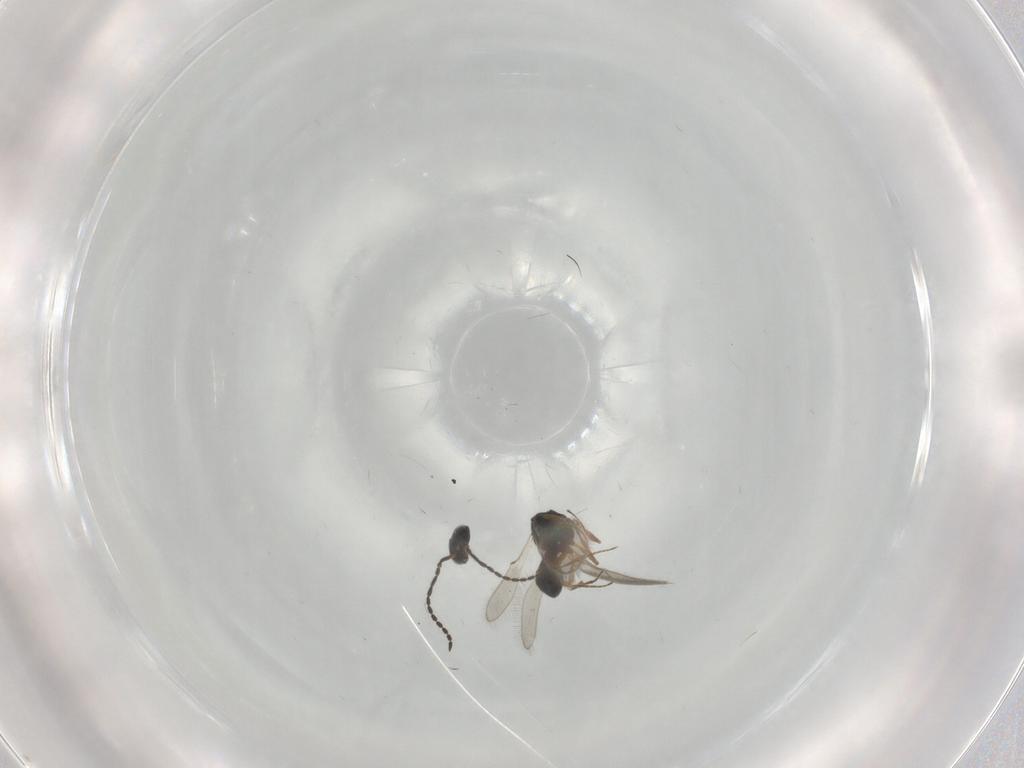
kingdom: Animalia
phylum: Arthropoda
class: Insecta
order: Hymenoptera
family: Scelionidae
